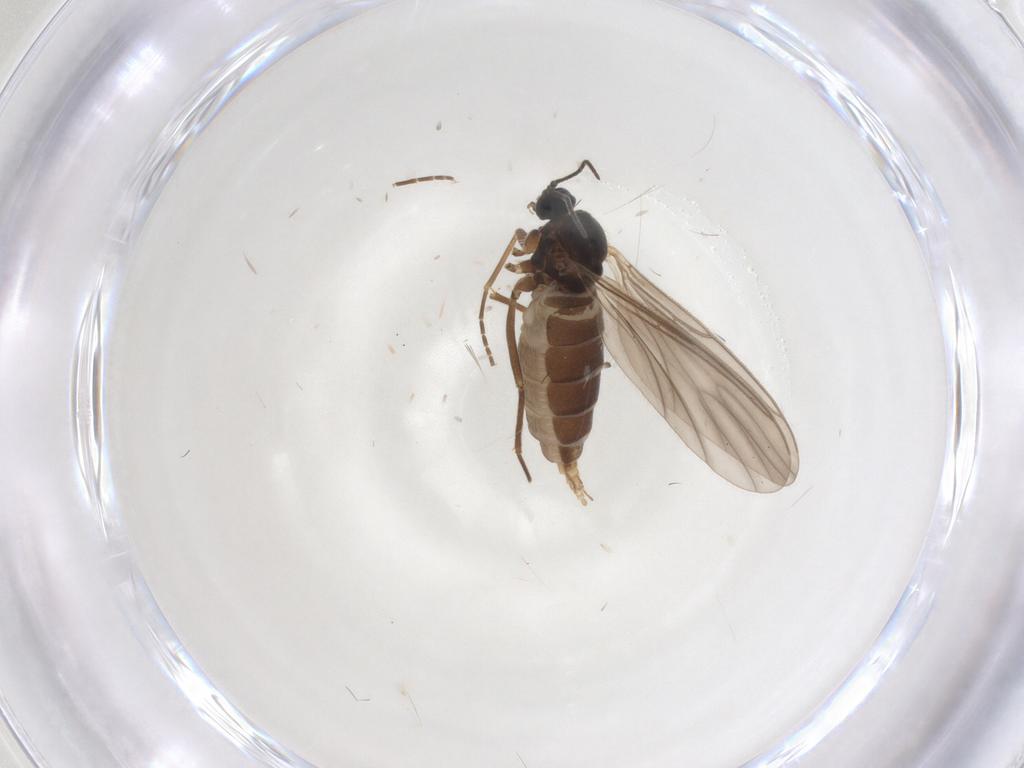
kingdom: Animalia
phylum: Arthropoda
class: Insecta
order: Diptera
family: Sciaridae
